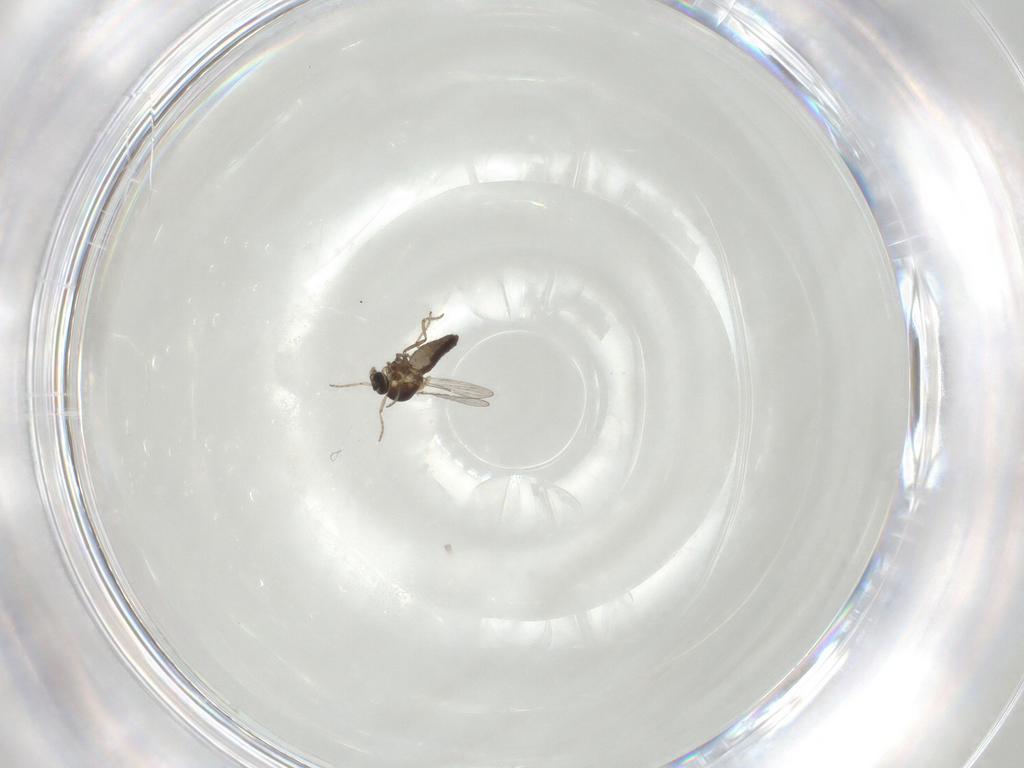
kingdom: Animalia
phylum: Arthropoda
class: Insecta
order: Diptera
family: Ceratopogonidae
